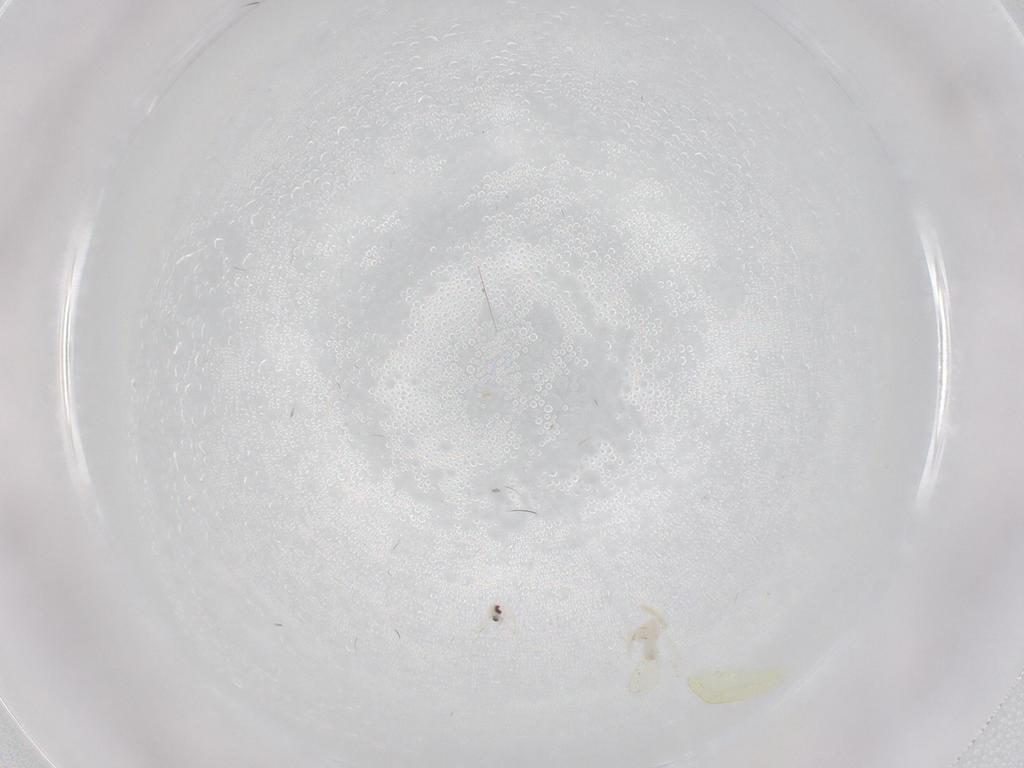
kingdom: Animalia
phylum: Arthropoda
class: Insecta
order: Hemiptera
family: Aleyrodidae
